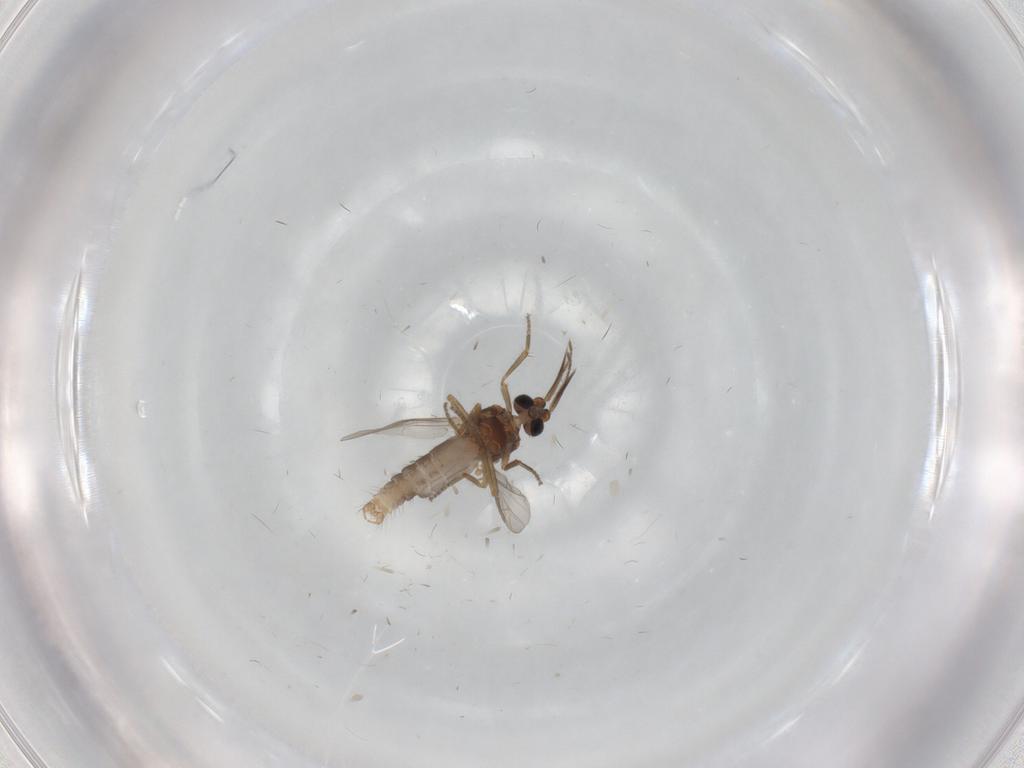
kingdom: Animalia
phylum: Arthropoda
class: Insecta
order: Diptera
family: Ceratopogonidae
